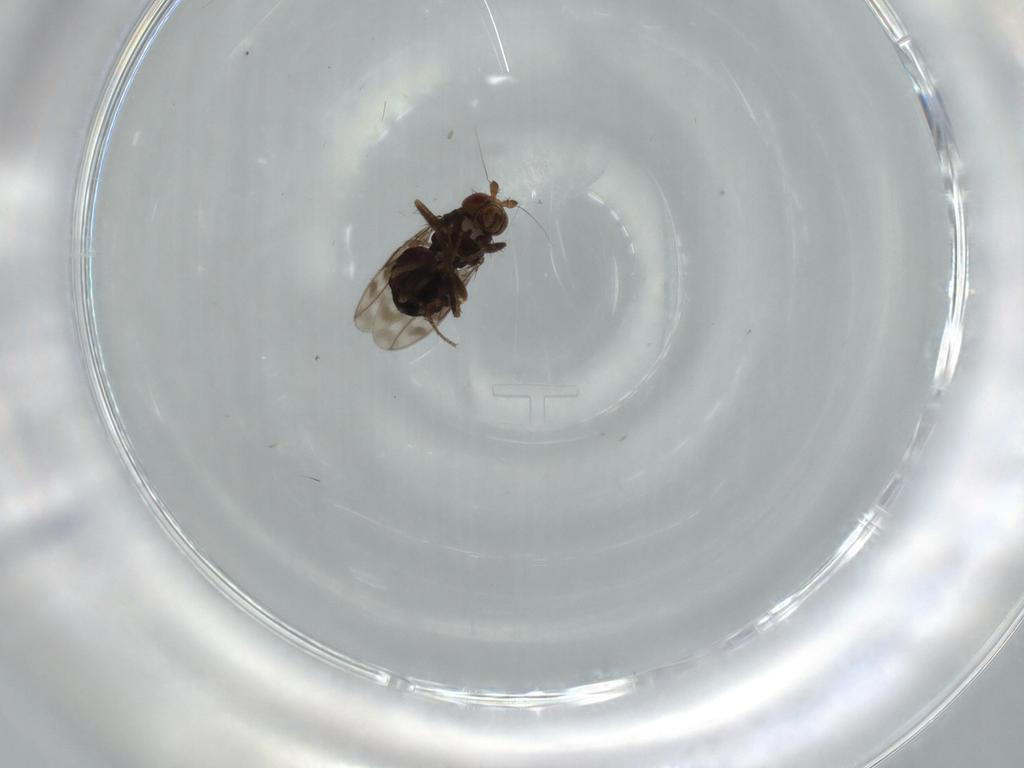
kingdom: Animalia
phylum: Arthropoda
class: Insecta
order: Diptera
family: Sphaeroceridae
